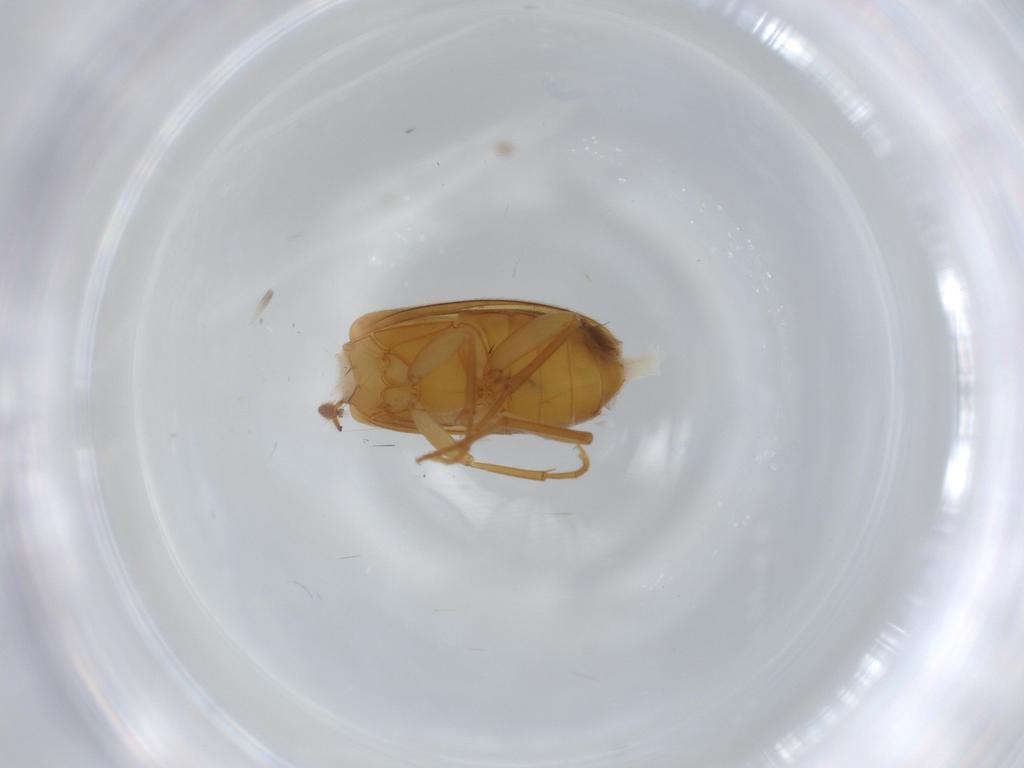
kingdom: Animalia
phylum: Arthropoda
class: Insecta
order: Coleoptera
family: Scraptiidae
